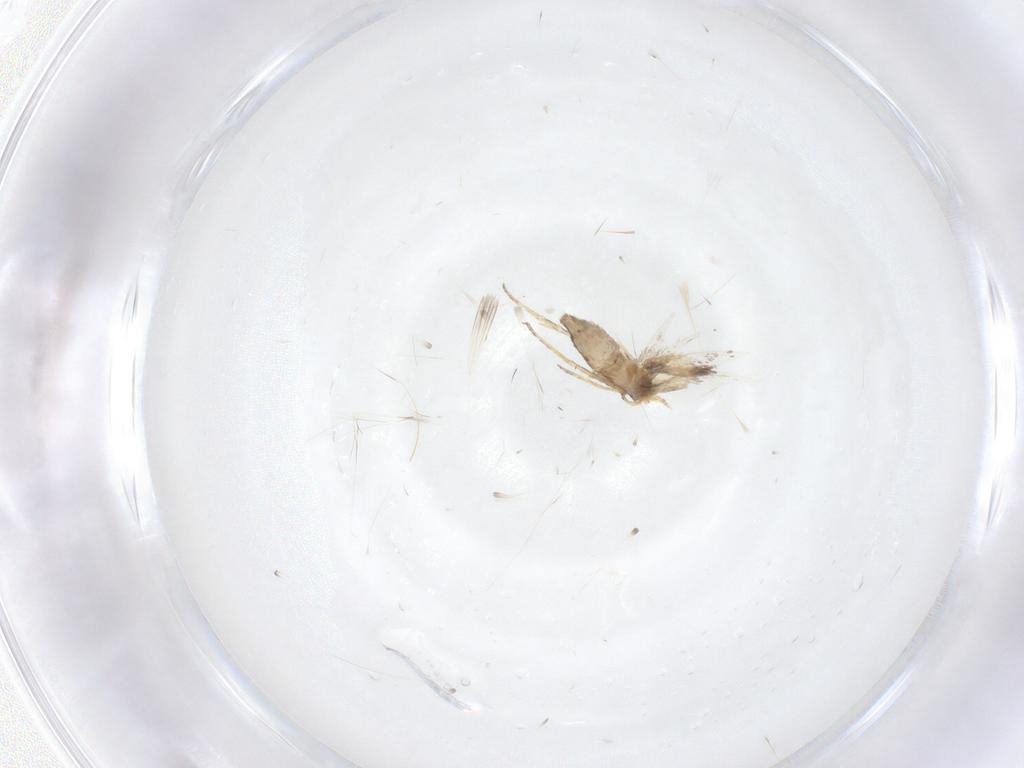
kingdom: Animalia
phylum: Arthropoda
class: Insecta
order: Lepidoptera
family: Nepticulidae
